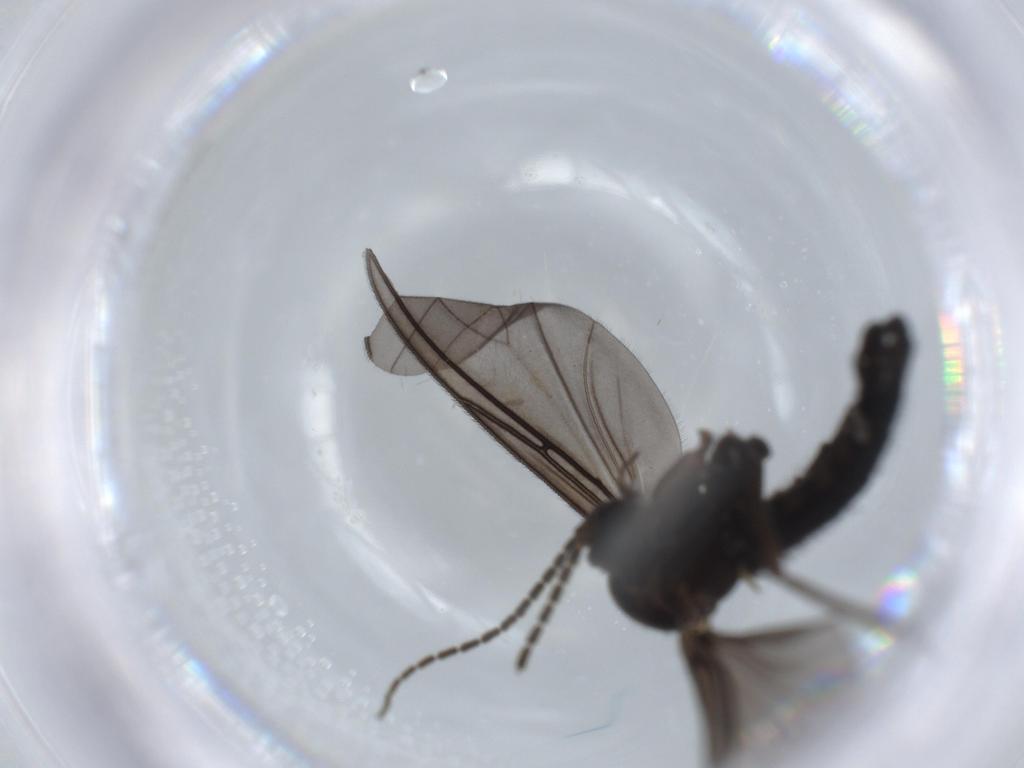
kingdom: Animalia
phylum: Arthropoda
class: Insecta
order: Diptera
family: Sciaridae
